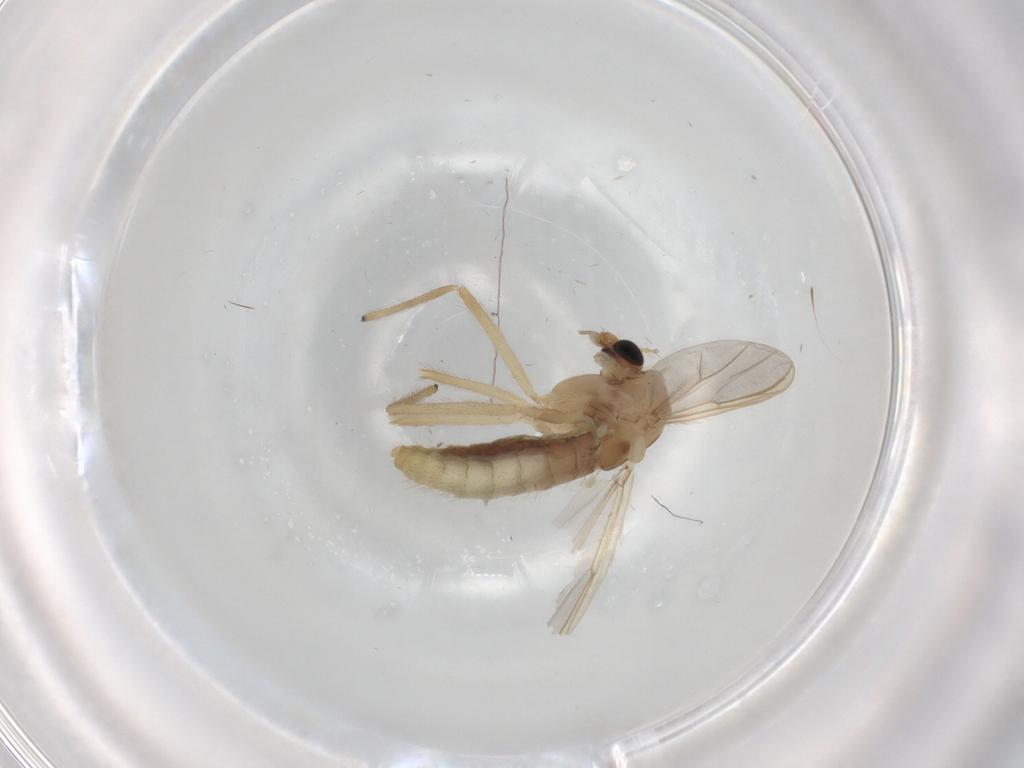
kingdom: Animalia
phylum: Arthropoda
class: Insecta
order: Diptera
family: Chironomidae
